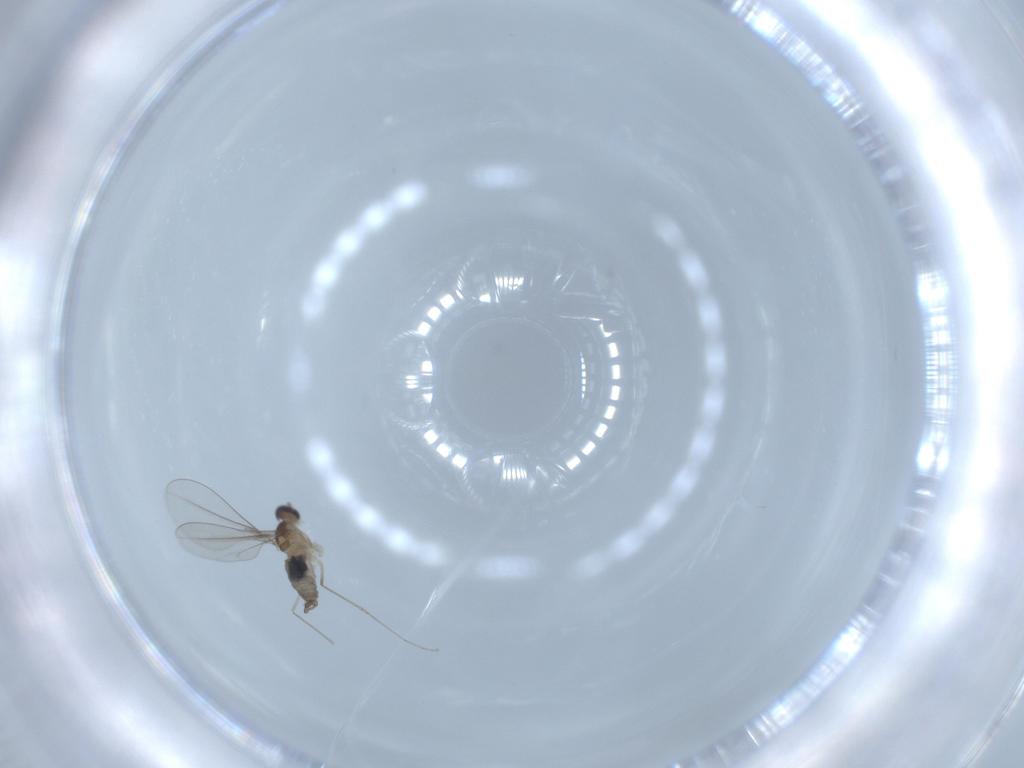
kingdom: Animalia
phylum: Arthropoda
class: Insecta
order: Diptera
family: Cecidomyiidae
